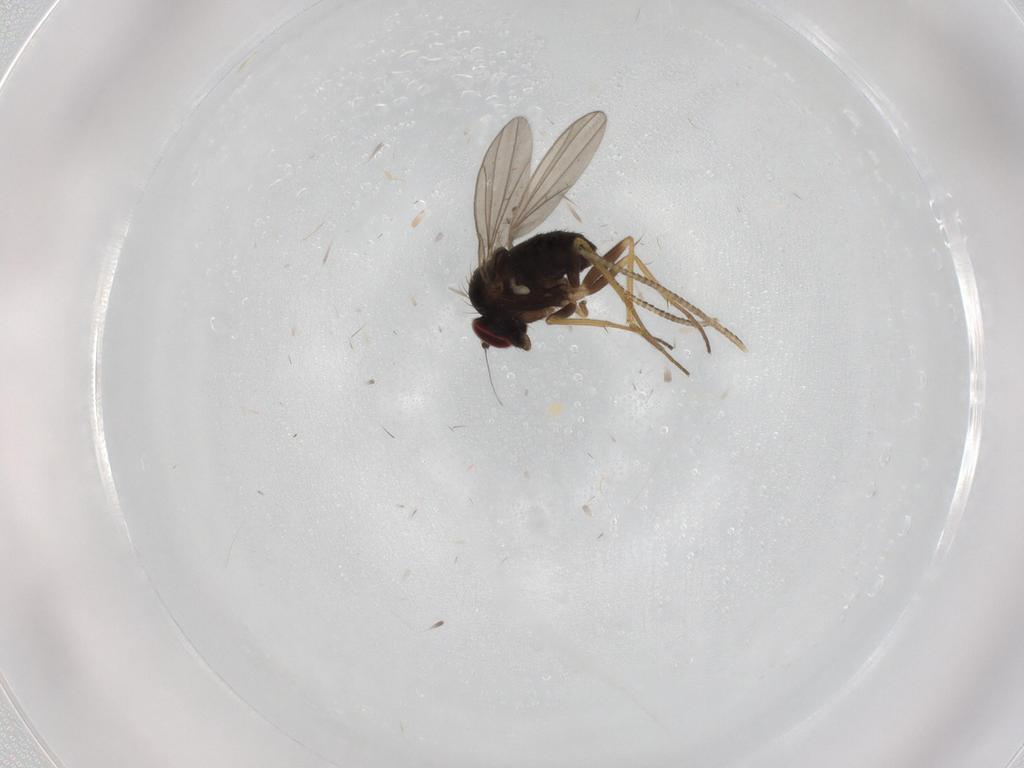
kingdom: Animalia
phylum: Arthropoda
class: Insecta
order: Diptera
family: Dolichopodidae
